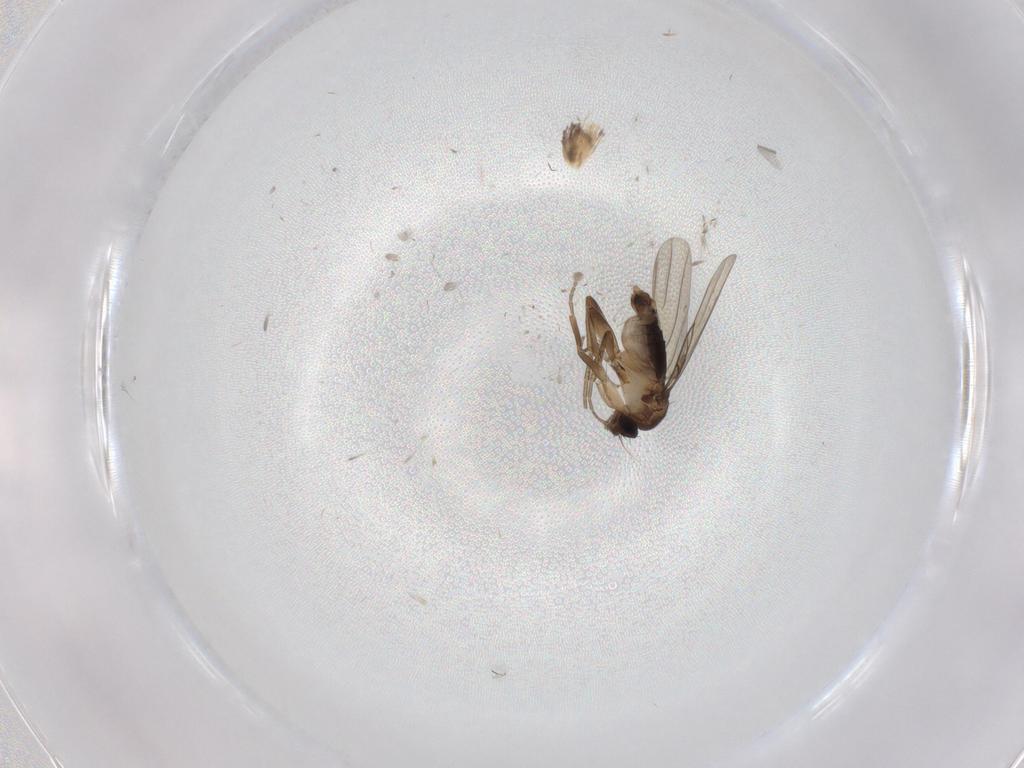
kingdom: Animalia
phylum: Arthropoda
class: Insecta
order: Diptera
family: Phoridae
